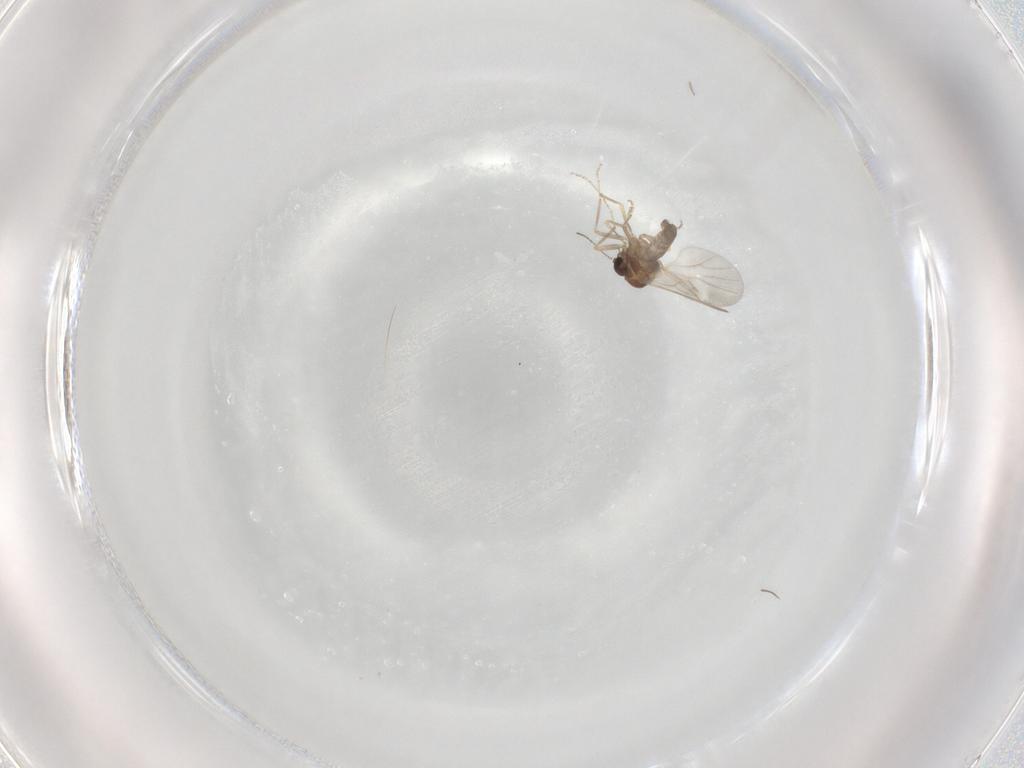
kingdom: Animalia
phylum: Arthropoda
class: Insecta
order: Diptera
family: Ceratopogonidae
